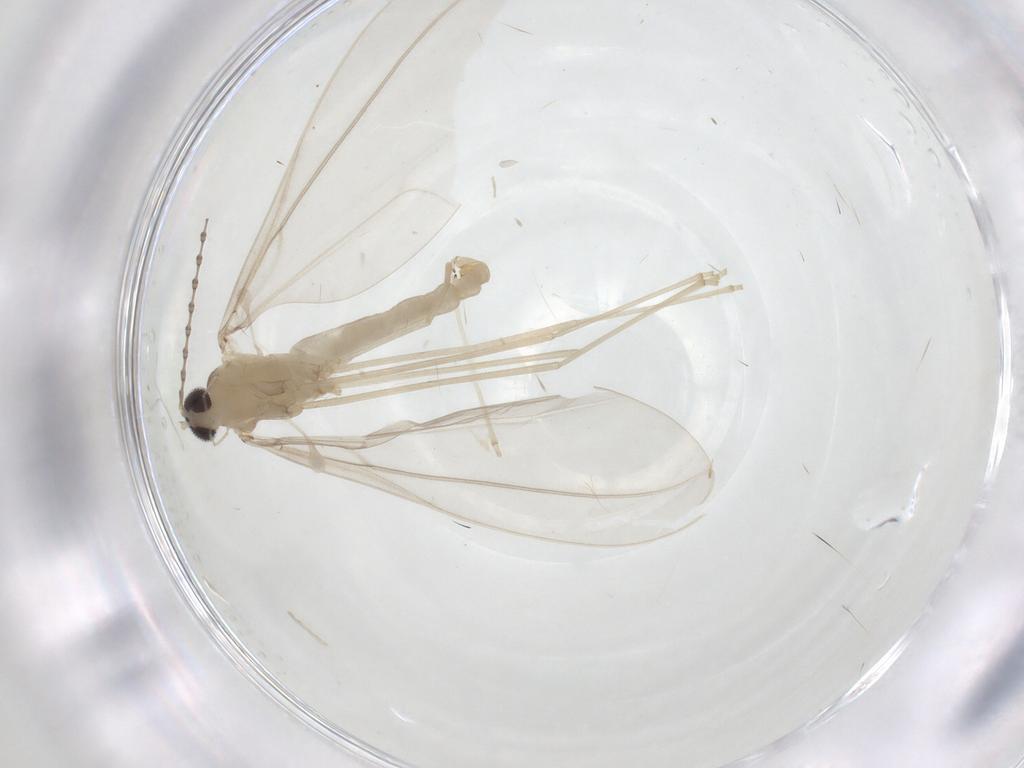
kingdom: Animalia
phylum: Arthropoda
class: Insecta
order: Diptera
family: Cecidomyiidae
